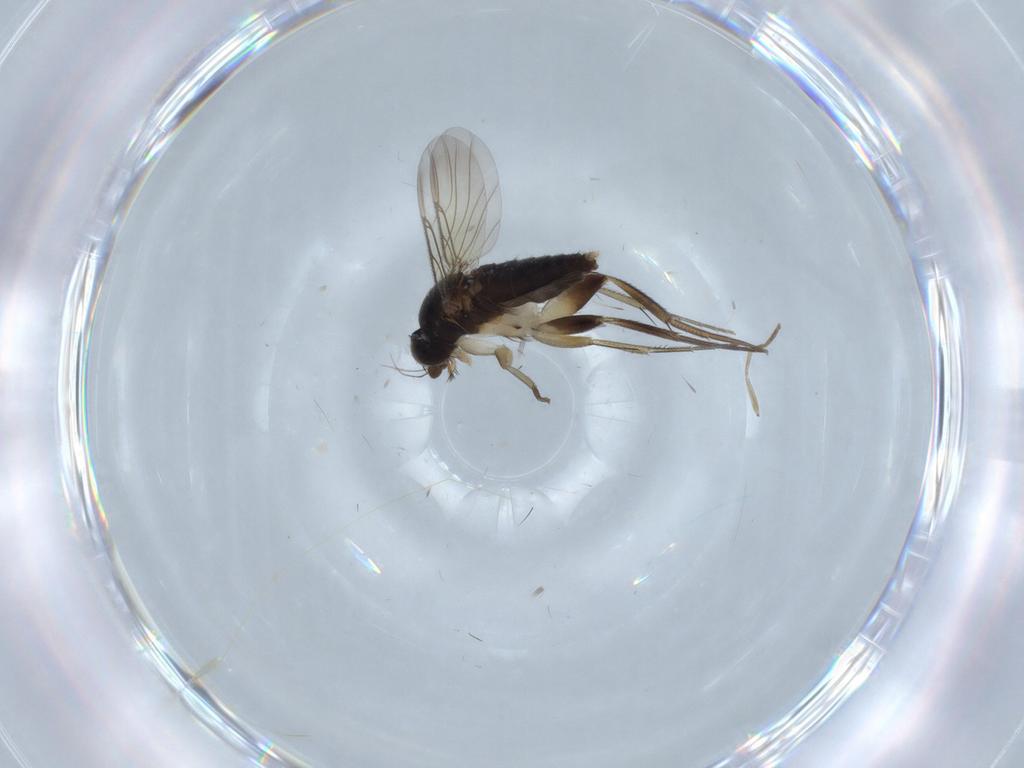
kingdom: Animalia
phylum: Arthropoda
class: Insecta
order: Diptera
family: Phoridae
